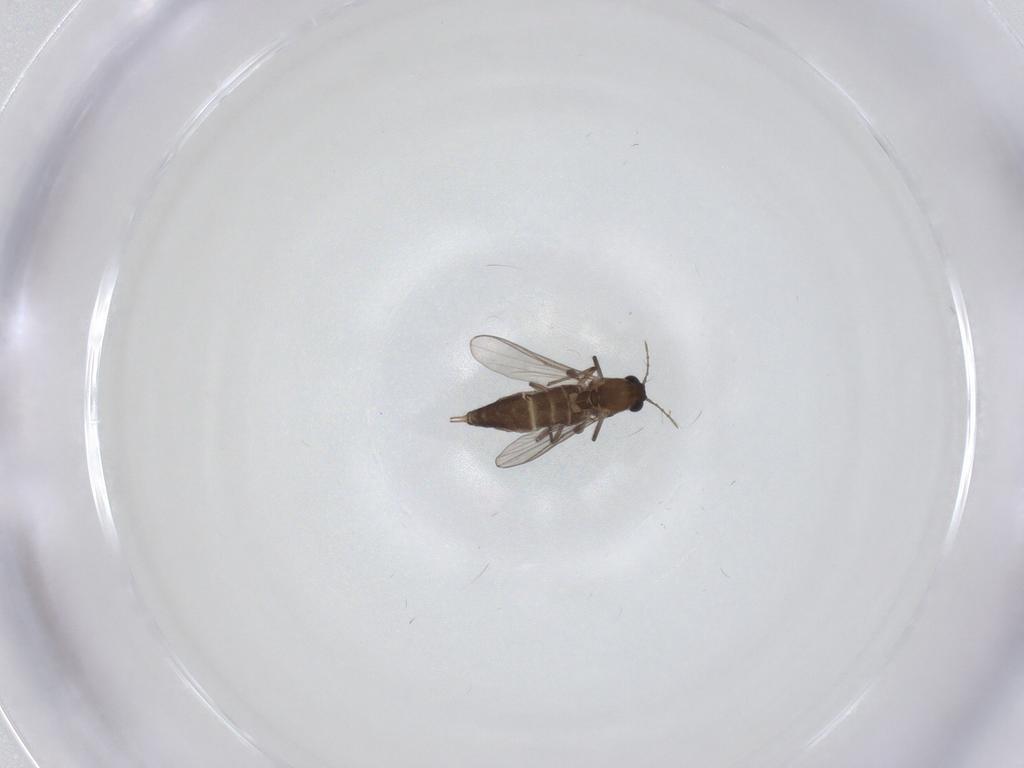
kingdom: Animalia
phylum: Arthropoda
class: Insecta
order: Diptera
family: Chironomidae
